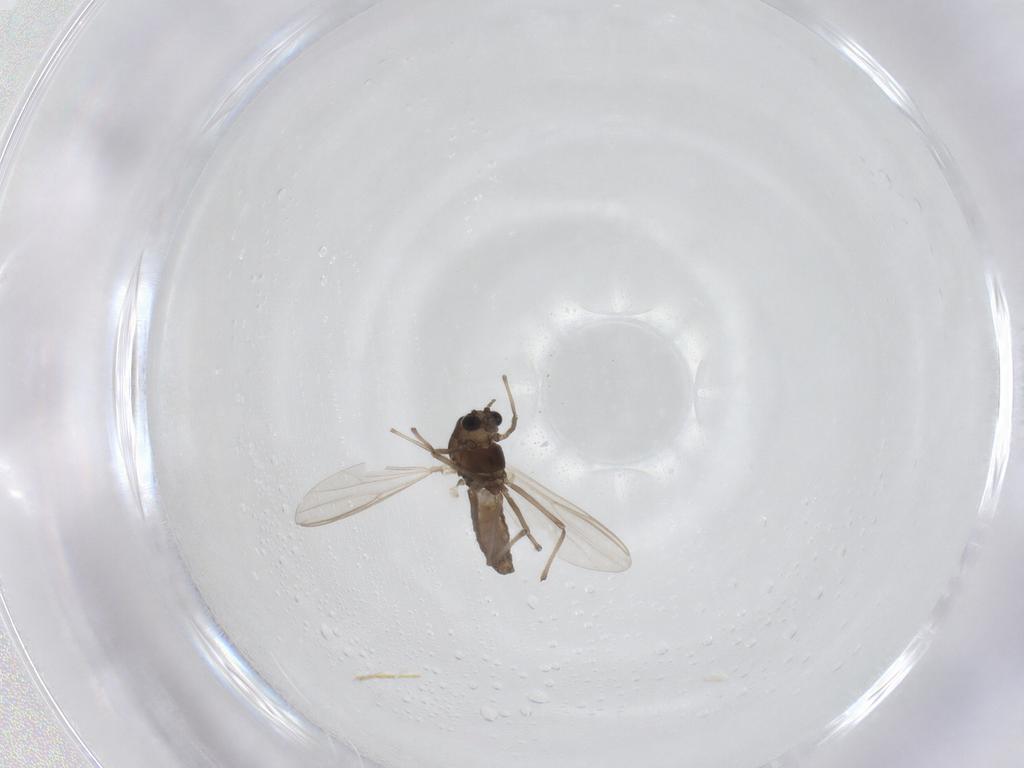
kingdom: Animalia
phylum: Arthropoda
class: Insecta
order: Diptera
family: Chironomidae
